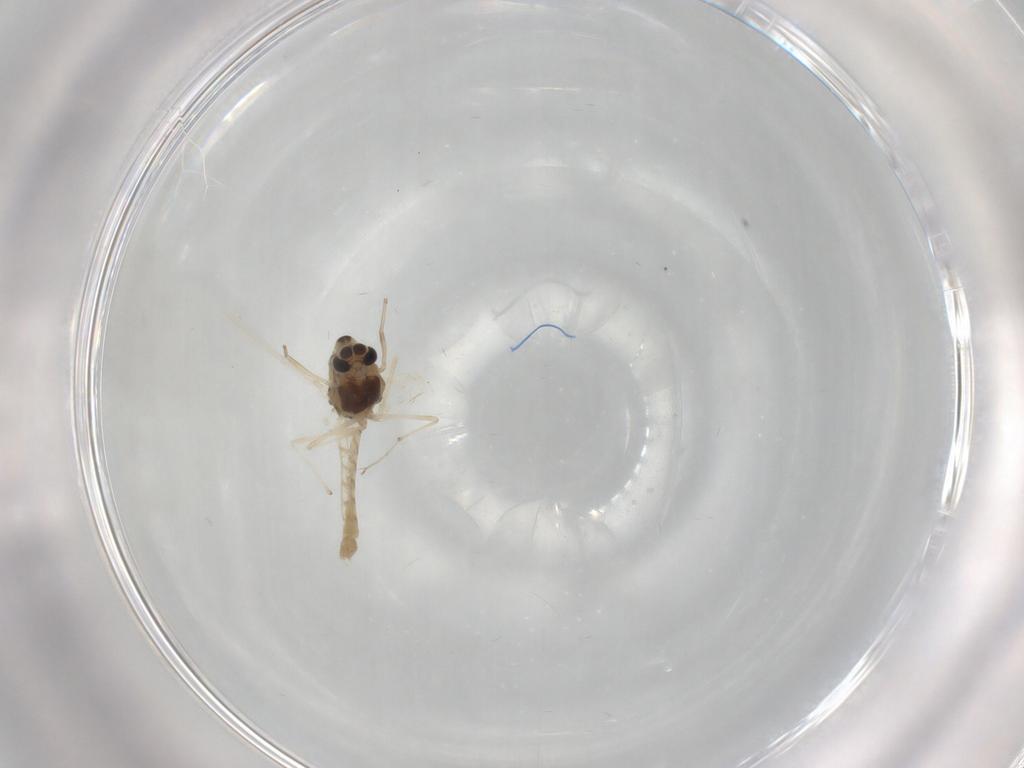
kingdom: Animalia
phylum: Arthropoda
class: Insecta
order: Diptera
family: Chironomidae
